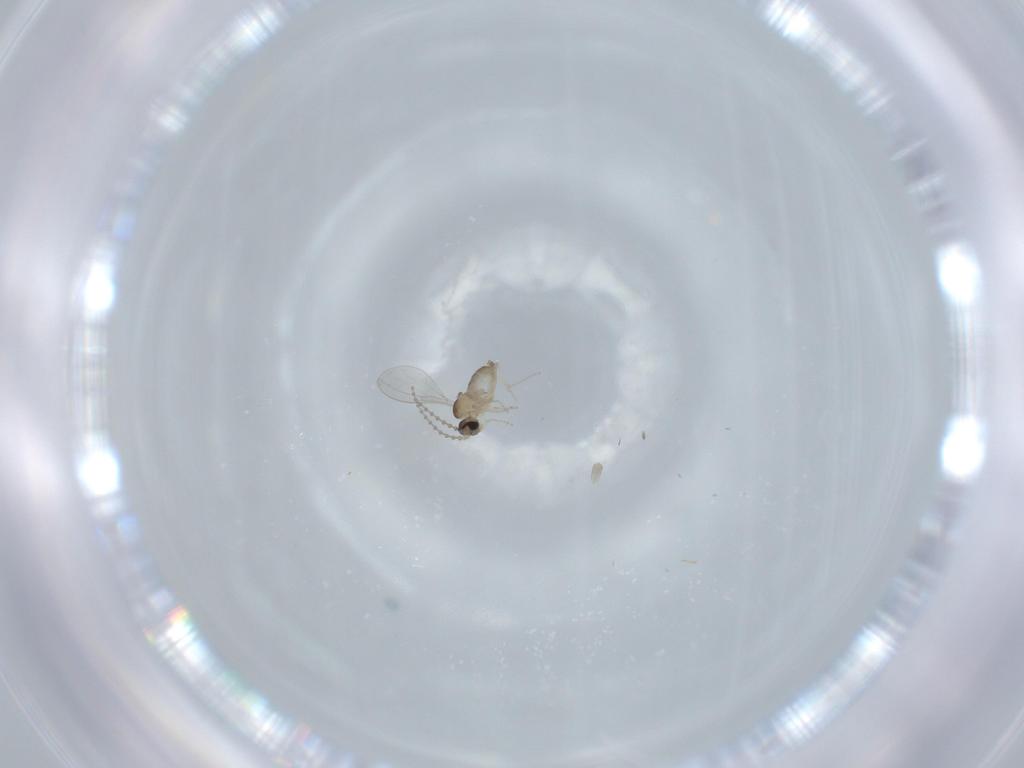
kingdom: Animalia
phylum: Arthropoda
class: Insecta
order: Diptera
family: Cecidomyiidae
